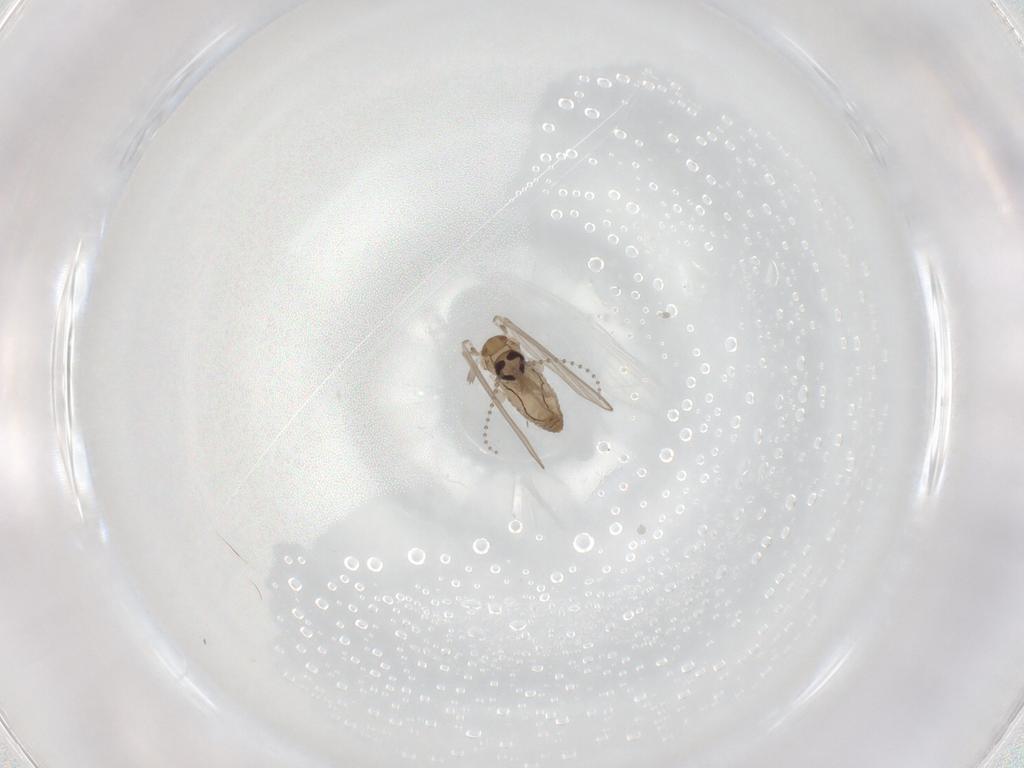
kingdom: Animalia
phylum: Arthropoda
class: Insecta
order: Diptera
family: Psychodidae
